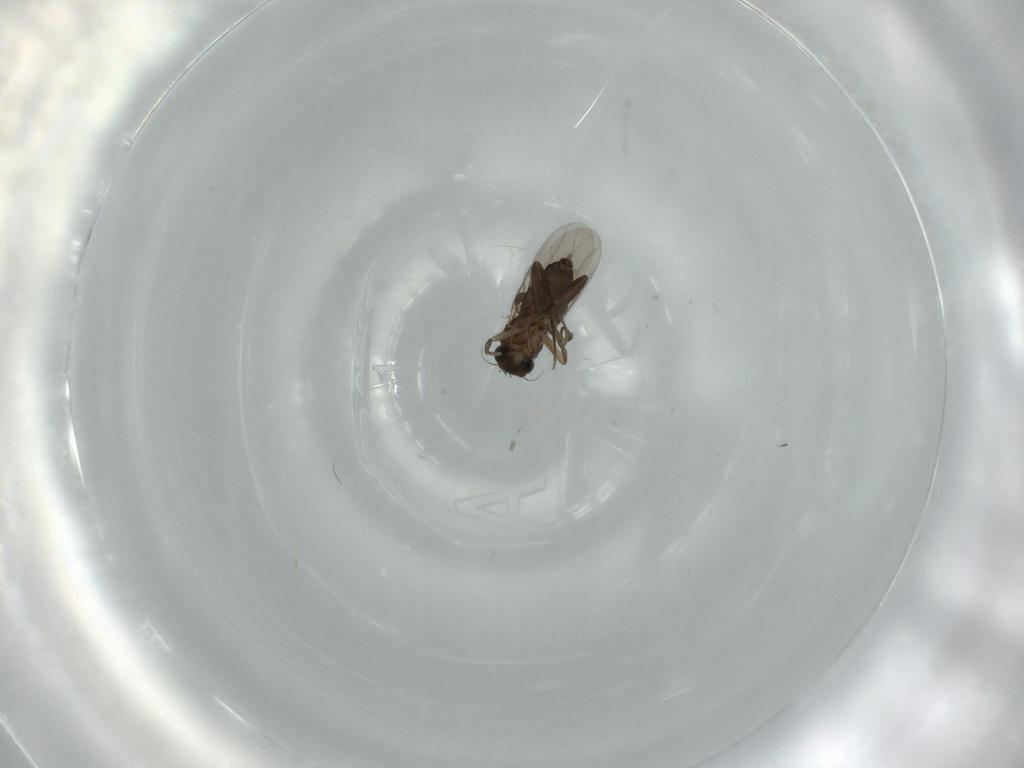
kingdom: Animalia
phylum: Arthropoda
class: Insecta
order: Diptera
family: Phoridae
